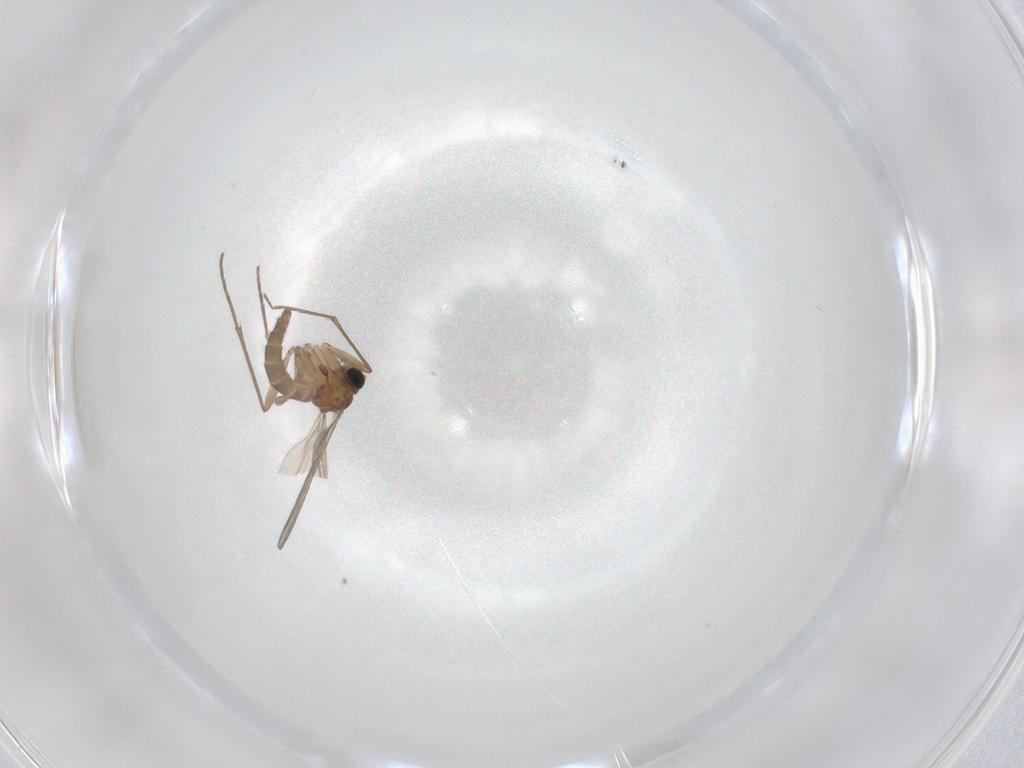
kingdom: Animalia
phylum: Arthropoda
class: Insecta
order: Diptera
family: Sciaridae
